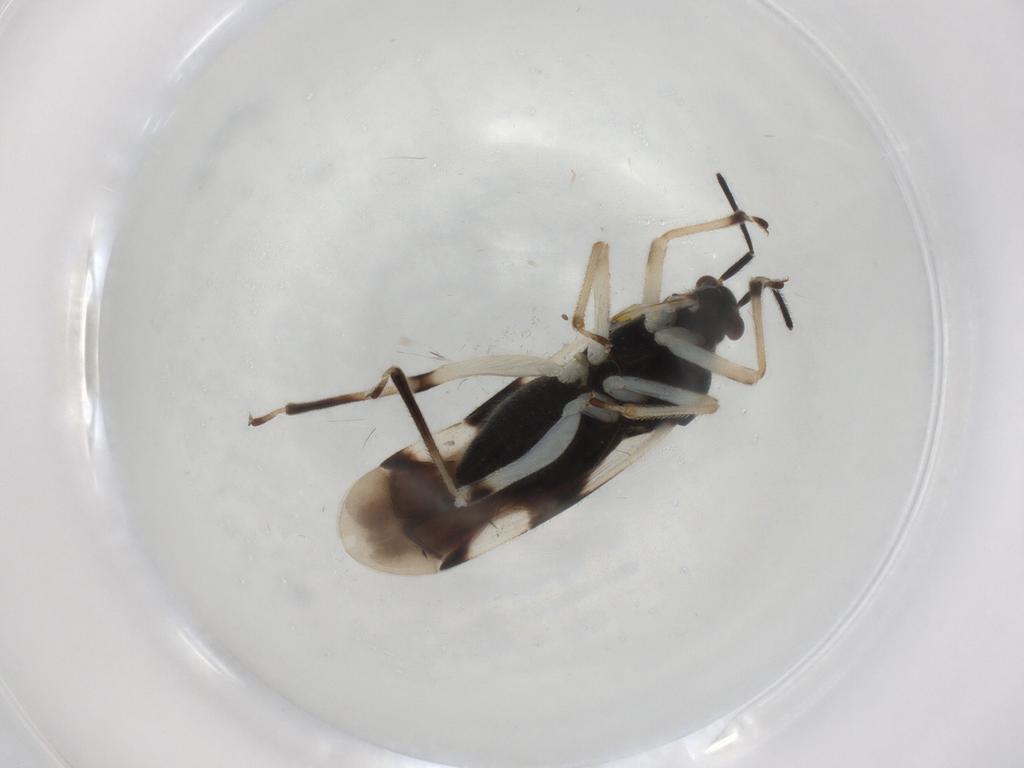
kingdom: Animalia
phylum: Arthropoda
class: Insecta
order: Hemiptera
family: Miridae
